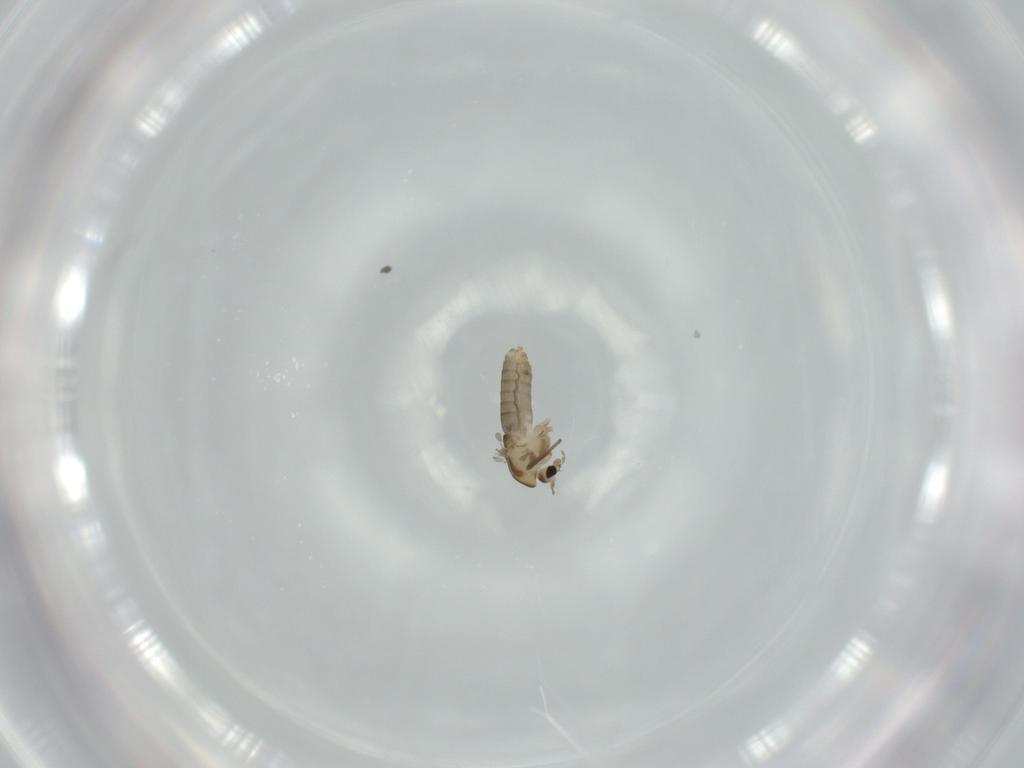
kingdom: Animalia
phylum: Arthropoda
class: Insecta
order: Diptera
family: Chironomidae
